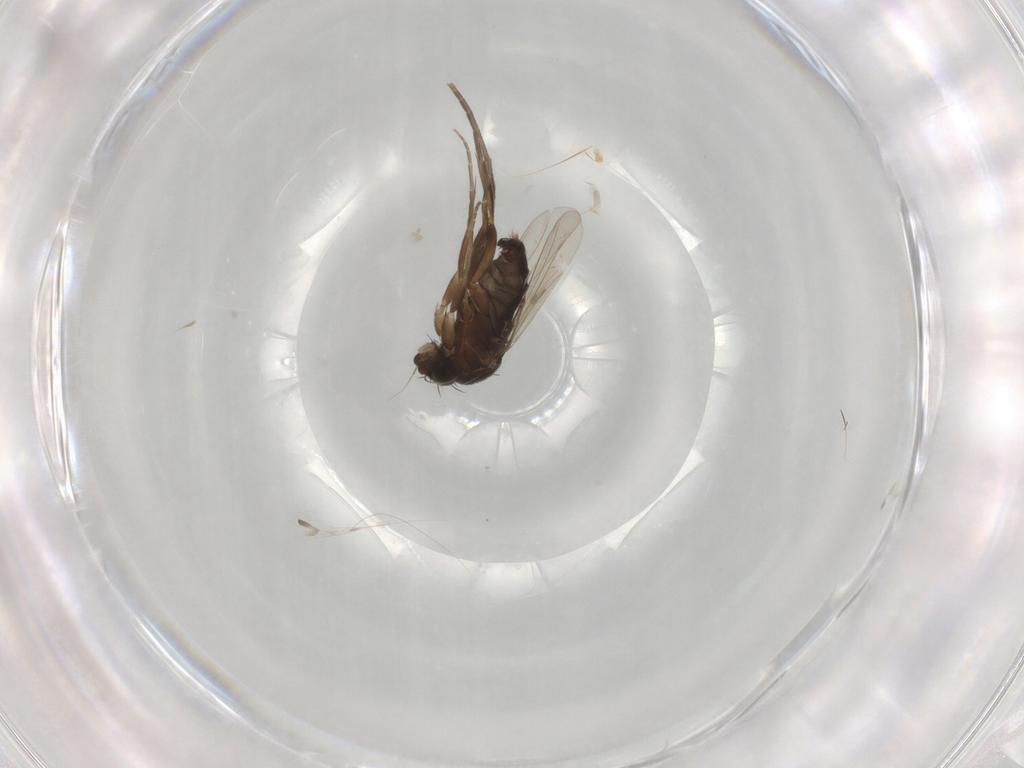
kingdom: Animalia
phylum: Arthropoda
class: Insecta
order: Diptera
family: Phoridae
